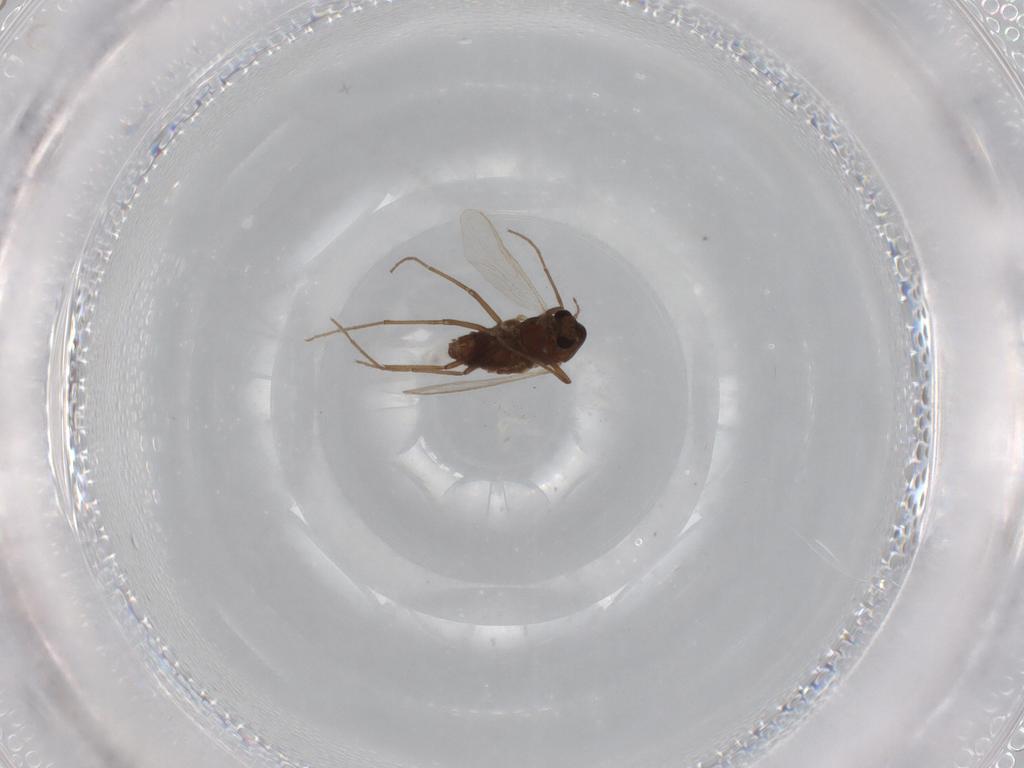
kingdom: Animalia
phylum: Arthropoda
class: Insecta
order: Diptera
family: Chironomidae
